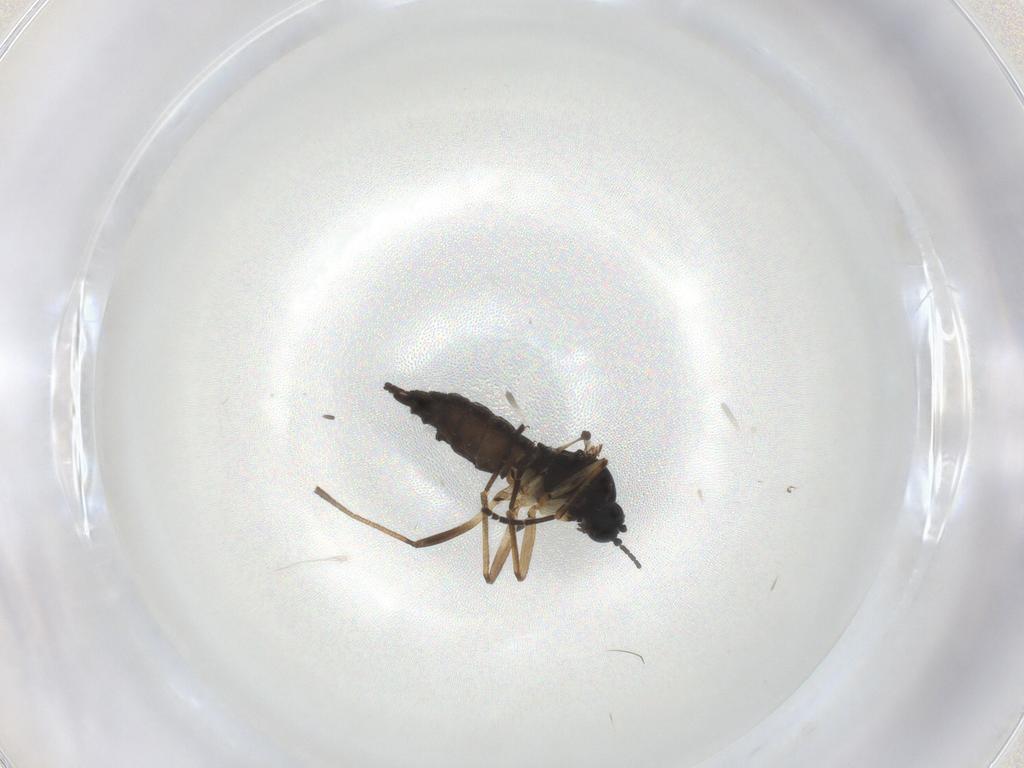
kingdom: Animalia
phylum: Arthropoda
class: Insecta
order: Diptera
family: Sciaridae
